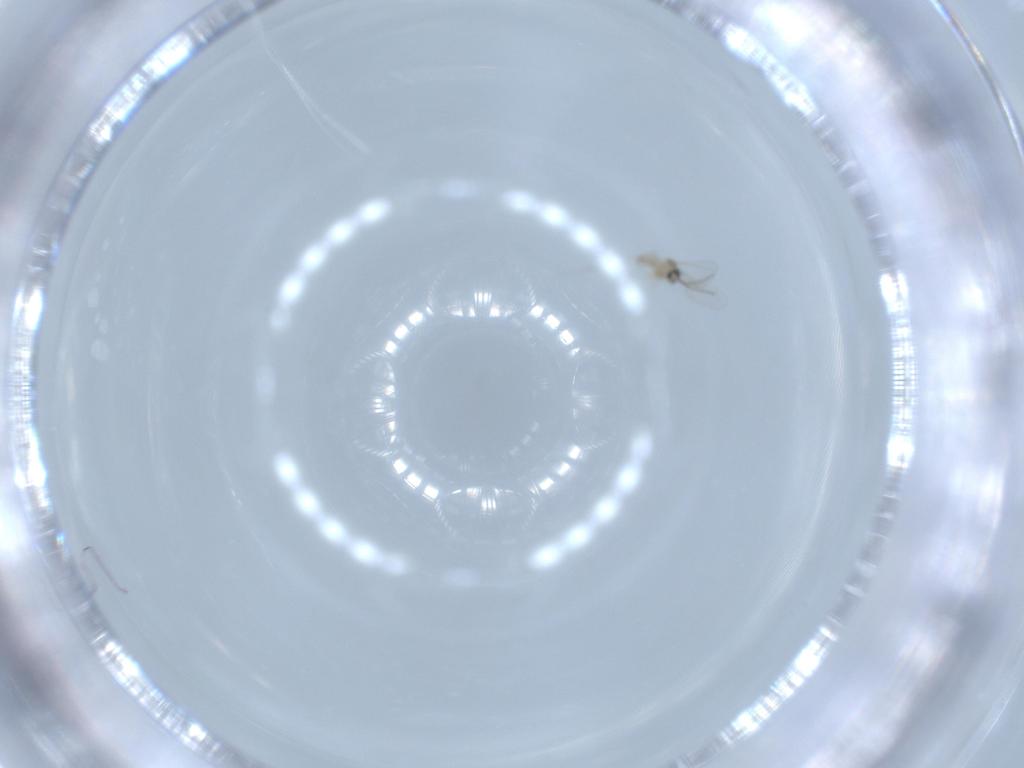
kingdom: Animalia
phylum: Arthropoda
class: Insecta
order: Diptera
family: Cecidomyiidae
